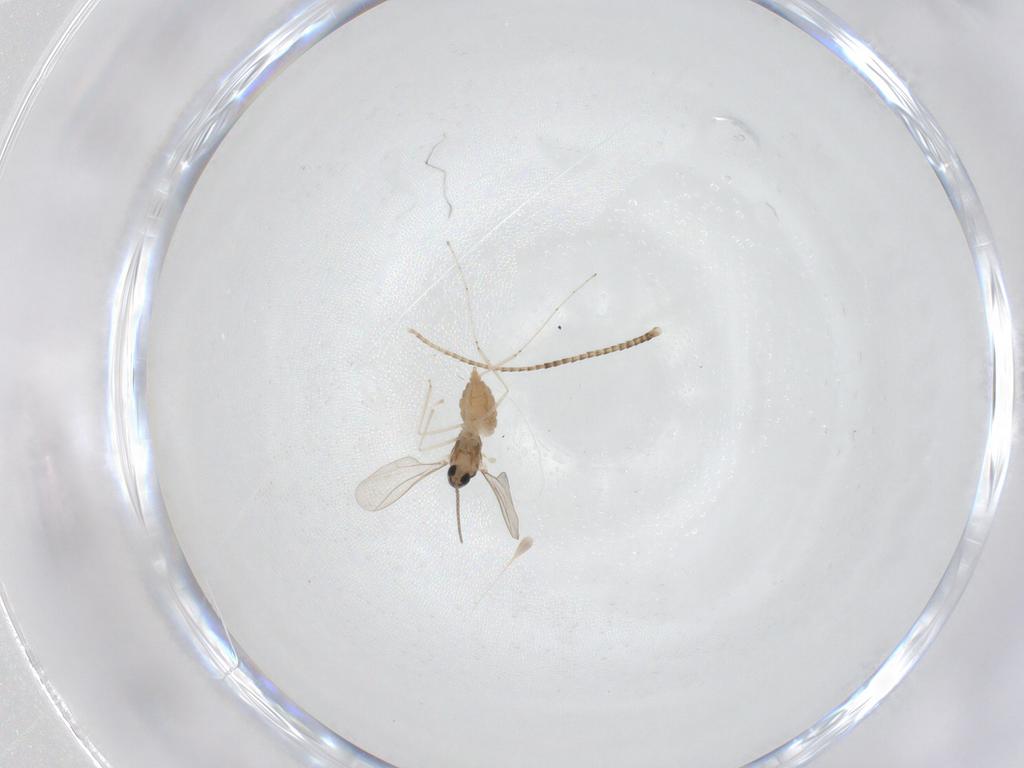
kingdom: Animalia
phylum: Arthropoda
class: Insecta
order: Diptera
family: Cecidomyiidae
